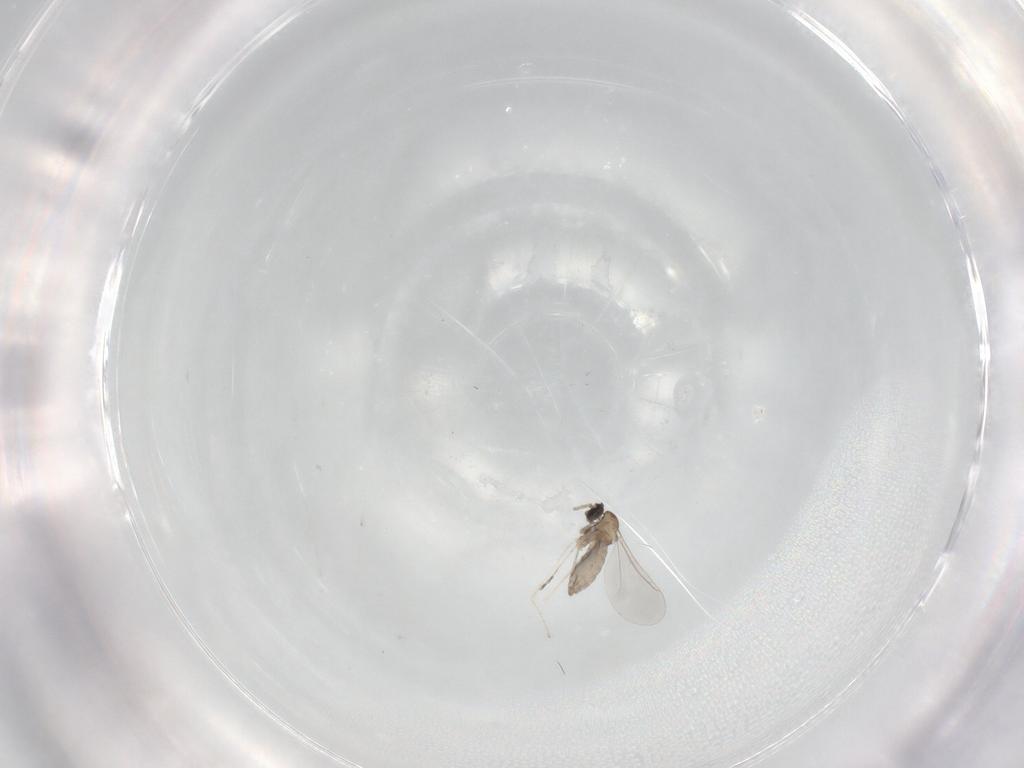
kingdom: Animalia
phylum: Arthropoda
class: Insecta
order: Diptera
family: Cecidomyiidae
